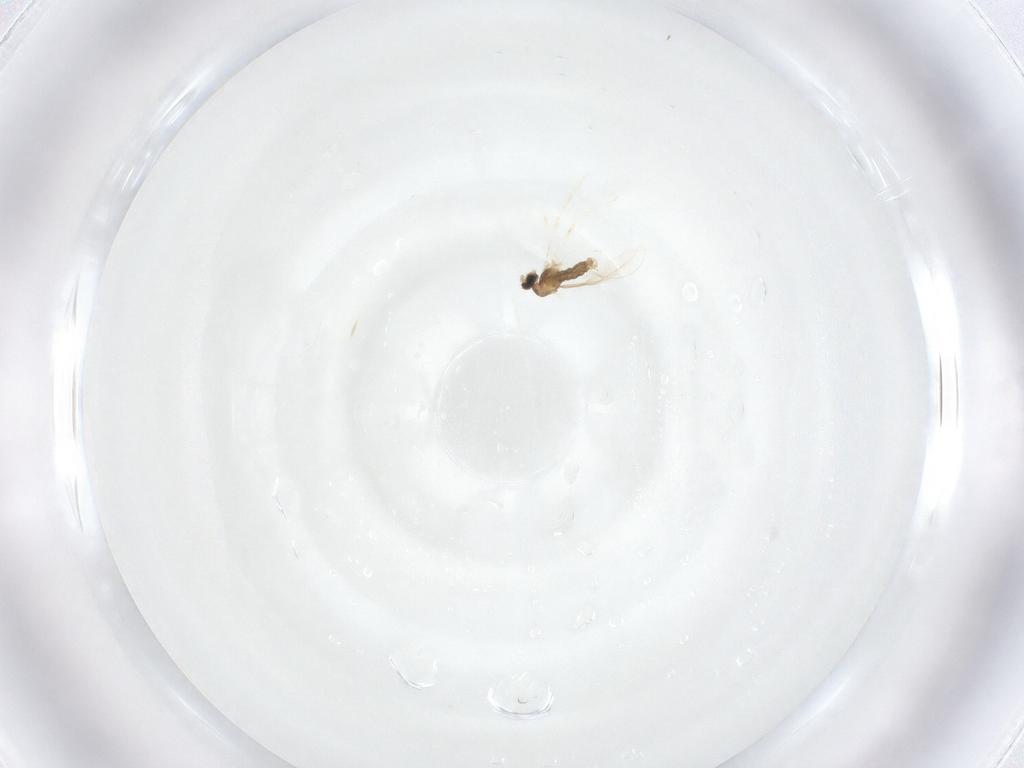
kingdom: Animalia
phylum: Arthropoda
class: Insecta
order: Diptera
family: Cecidomyiidae
